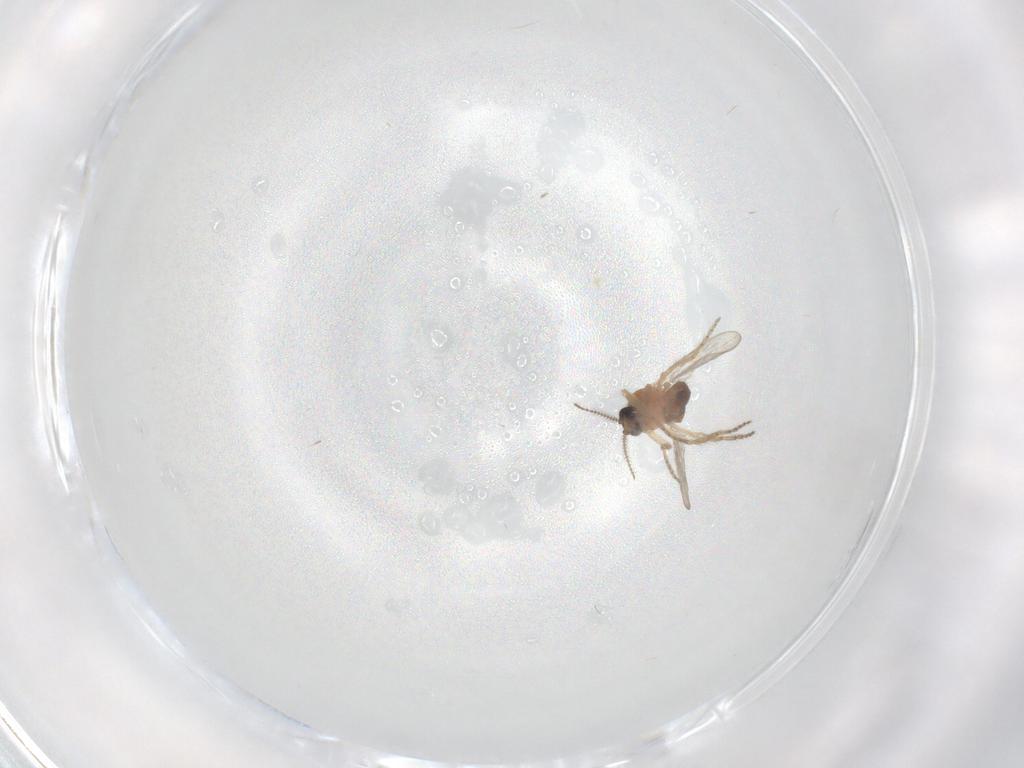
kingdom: Animalia
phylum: Arthropoda
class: Insecta
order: Diptera
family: Ceratopogonidae
